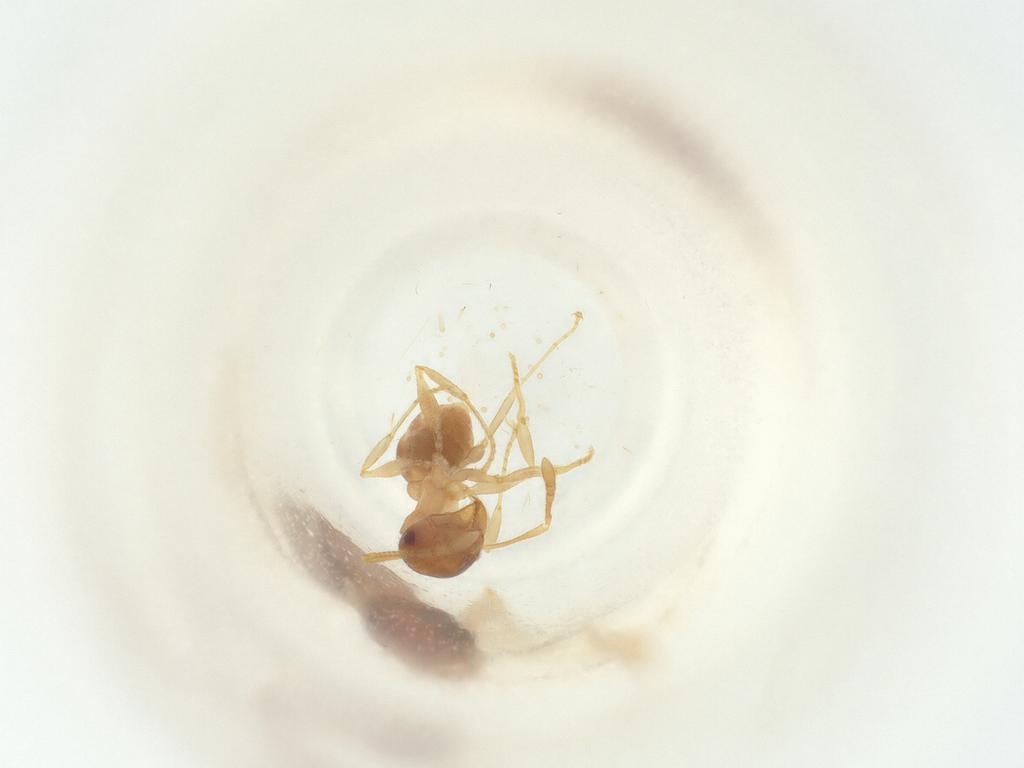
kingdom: Animalia
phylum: Arthropoda
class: Insecta
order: Hymenoptera
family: Formicidae
